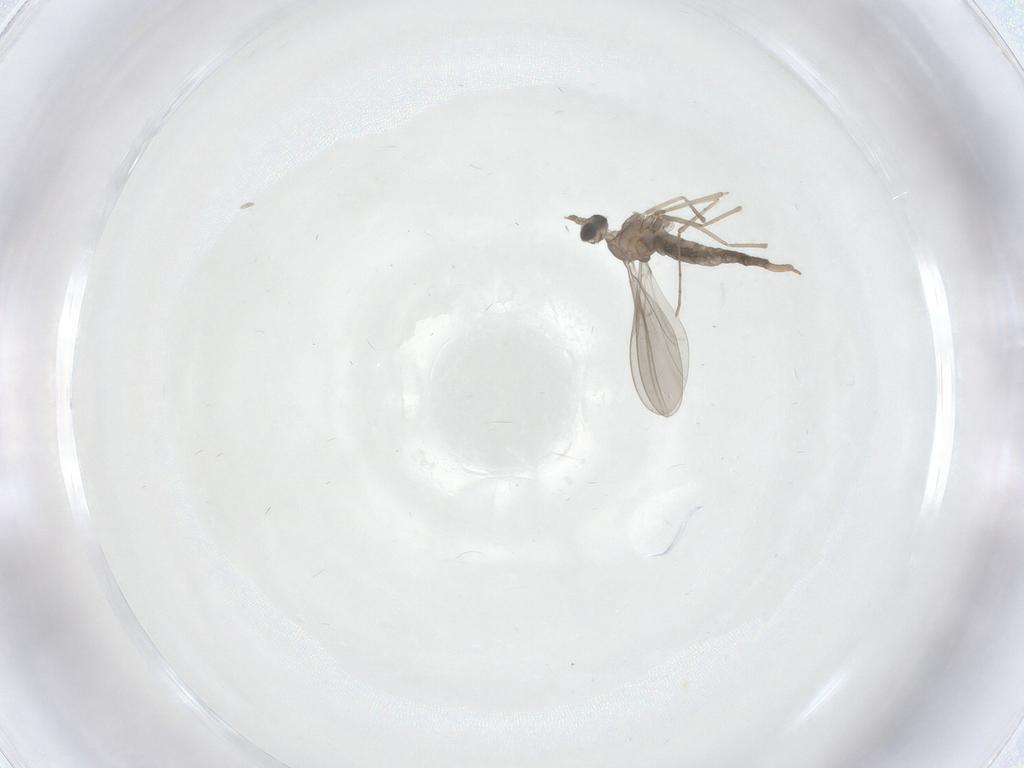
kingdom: Animalia
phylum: Arthropoda
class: Insecta
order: Diptera
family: Cecidomyiidae
